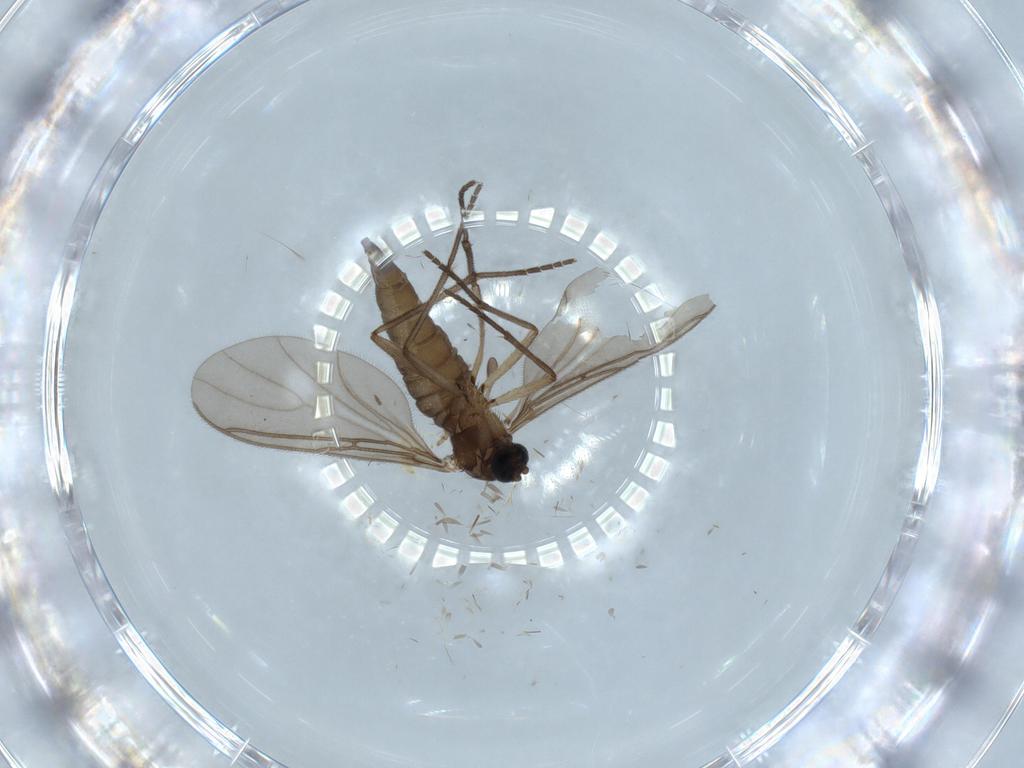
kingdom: Animalia
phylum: Arthropoda
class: Insecta
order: Diptera
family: Sciaridae
